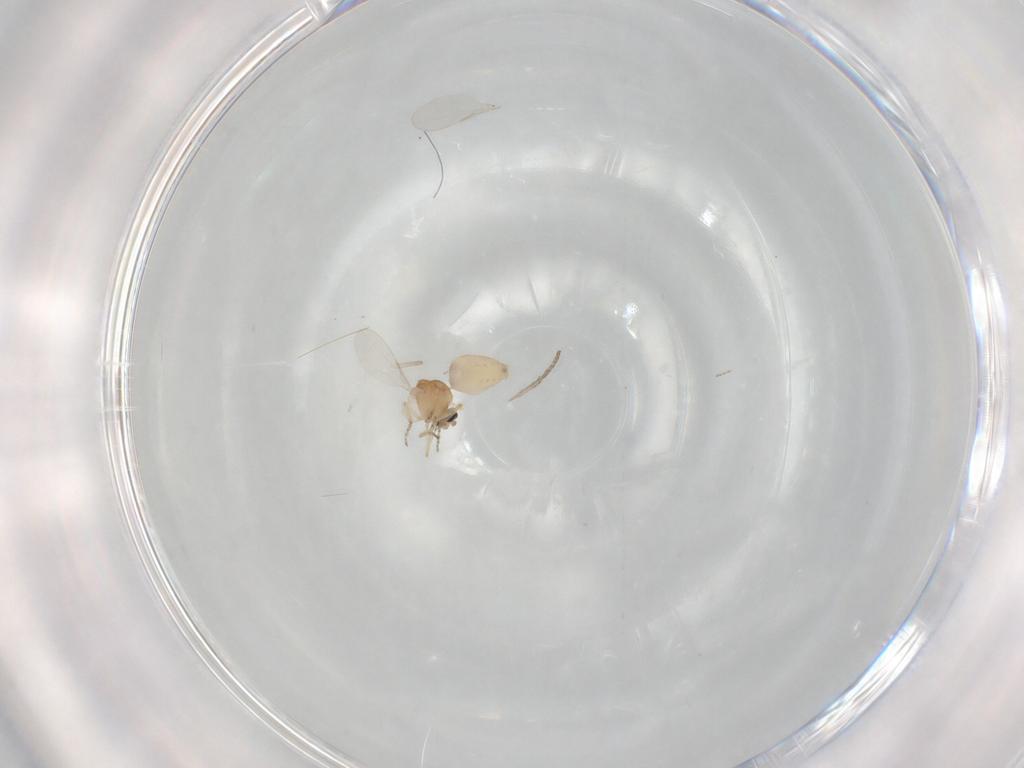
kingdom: Animalia
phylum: Arthropoda
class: Insecta
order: Diptera
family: Ceratopogonidae
